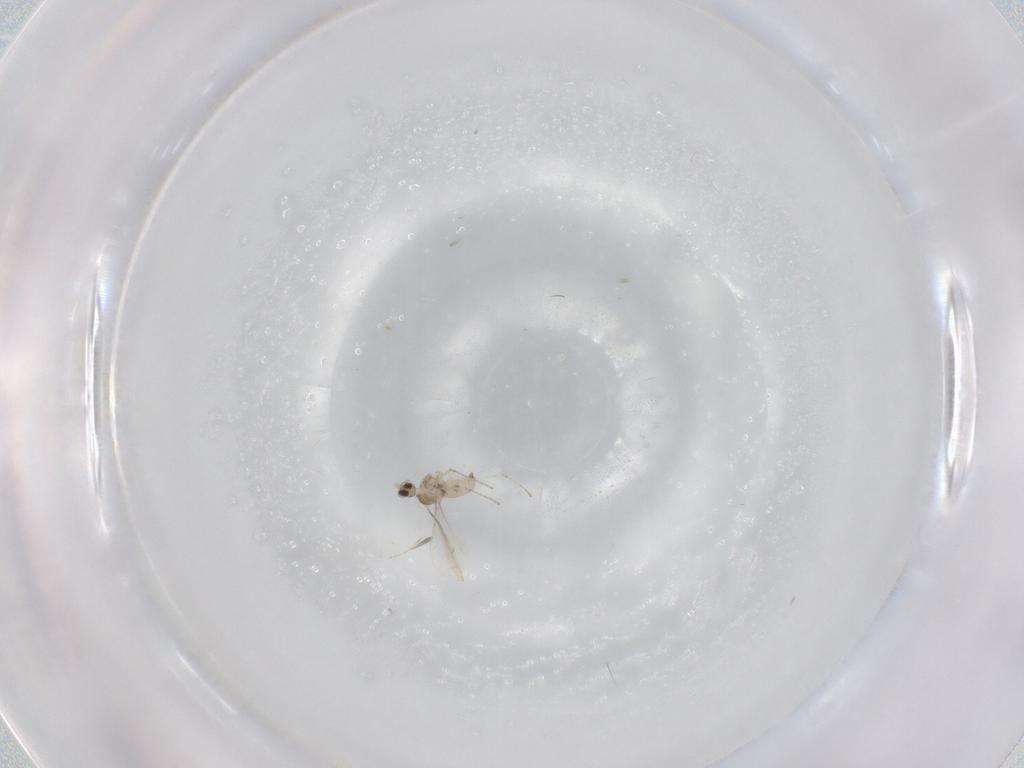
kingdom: Animalia
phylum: Arthropoda
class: Insecta
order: Diptera
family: Cecidomyiidae
